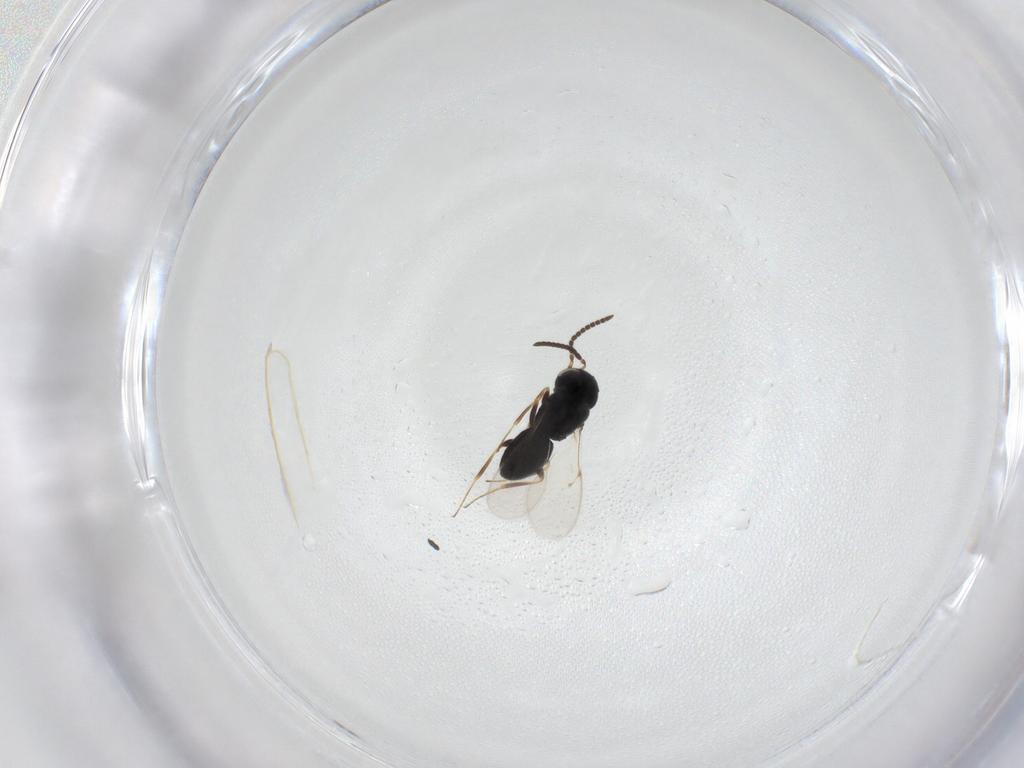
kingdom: Animalia
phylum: Arthropoda
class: Insecta
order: Hymenoptera
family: Scelionidae
